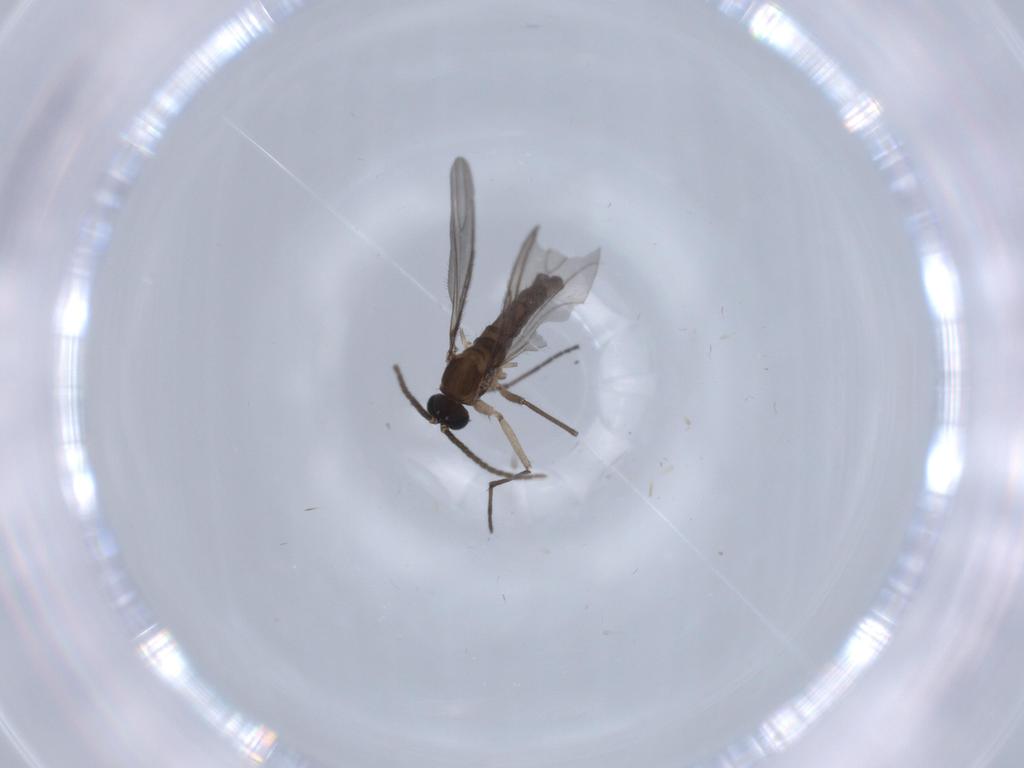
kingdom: Animalia
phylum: Arthropoda
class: Insecta
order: Diptera
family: Sciaridae
